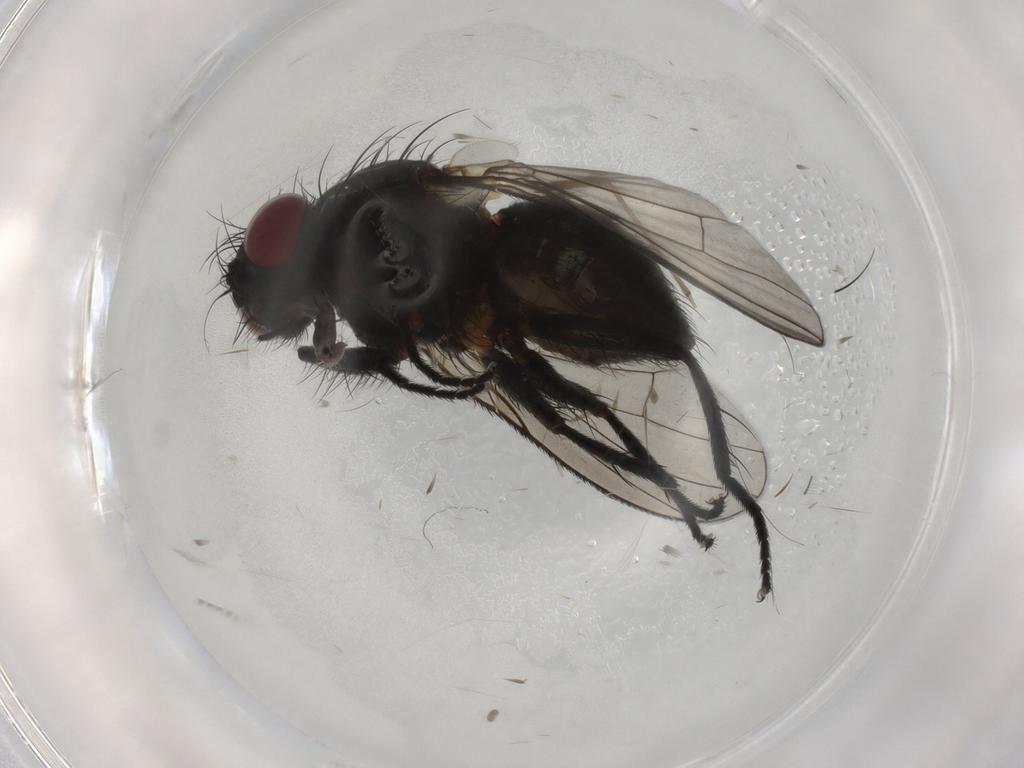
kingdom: Animalia
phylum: Arthropoda
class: Insecta
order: Diptera
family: Muscidae
